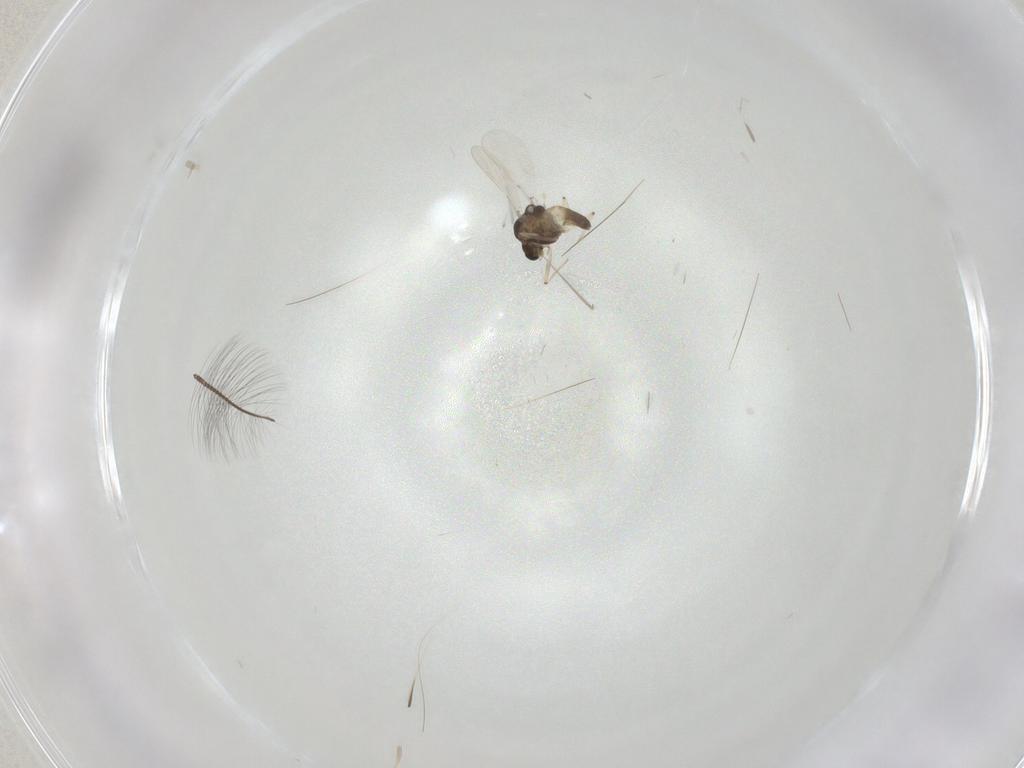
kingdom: Animalia
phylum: Arthropoda
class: Insecta
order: Diptera
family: Chironomidae
